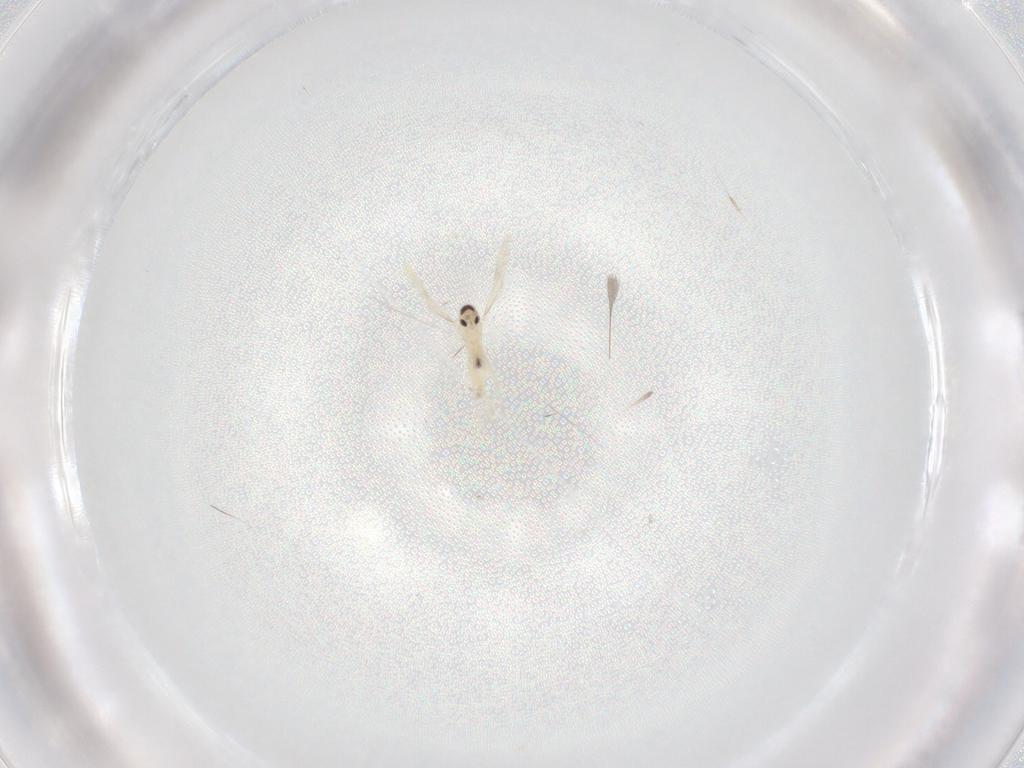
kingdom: Animalia
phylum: Arthropoda
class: Insecta
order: Diptera
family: Cecidomyiidae
